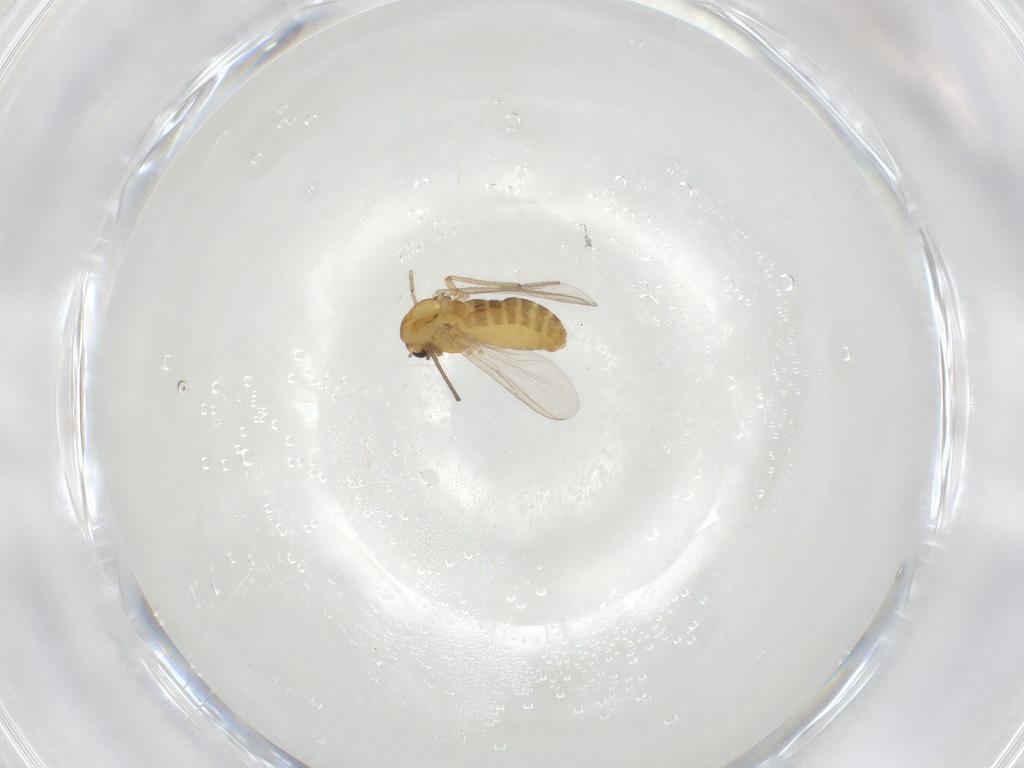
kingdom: Animalia
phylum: Arthropoda
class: Insecta
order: Diptera
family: Chironomidae
